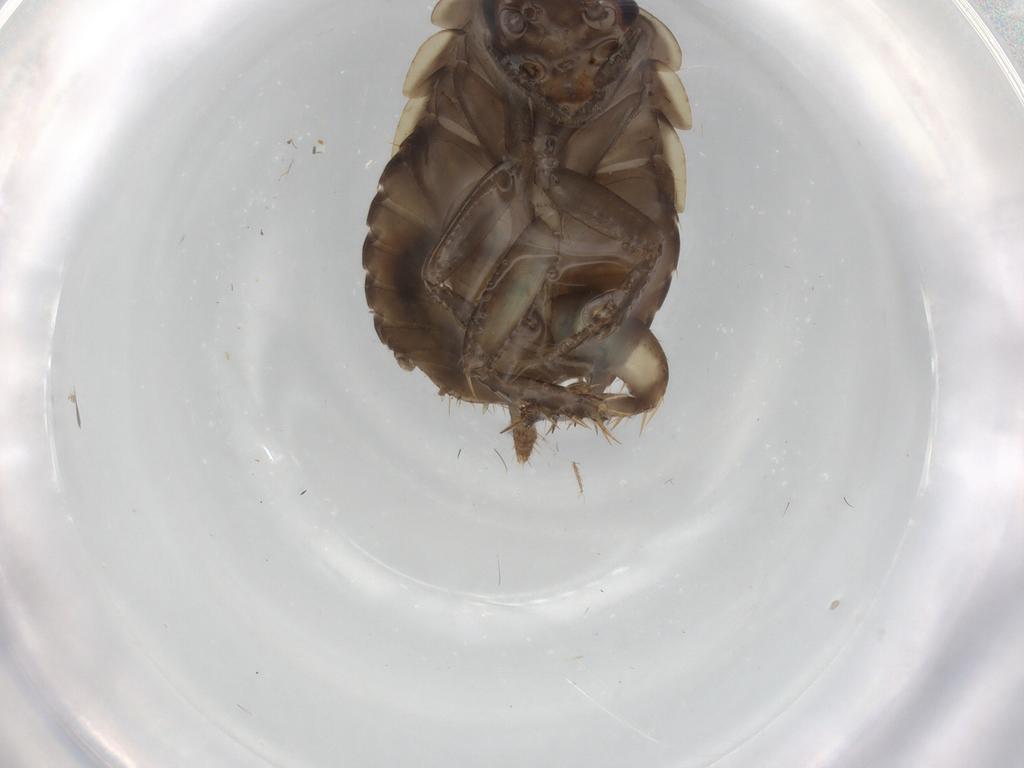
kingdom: Animalia
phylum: Arthropoda
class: Insecta
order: Blattodea
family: Ectobiidae
